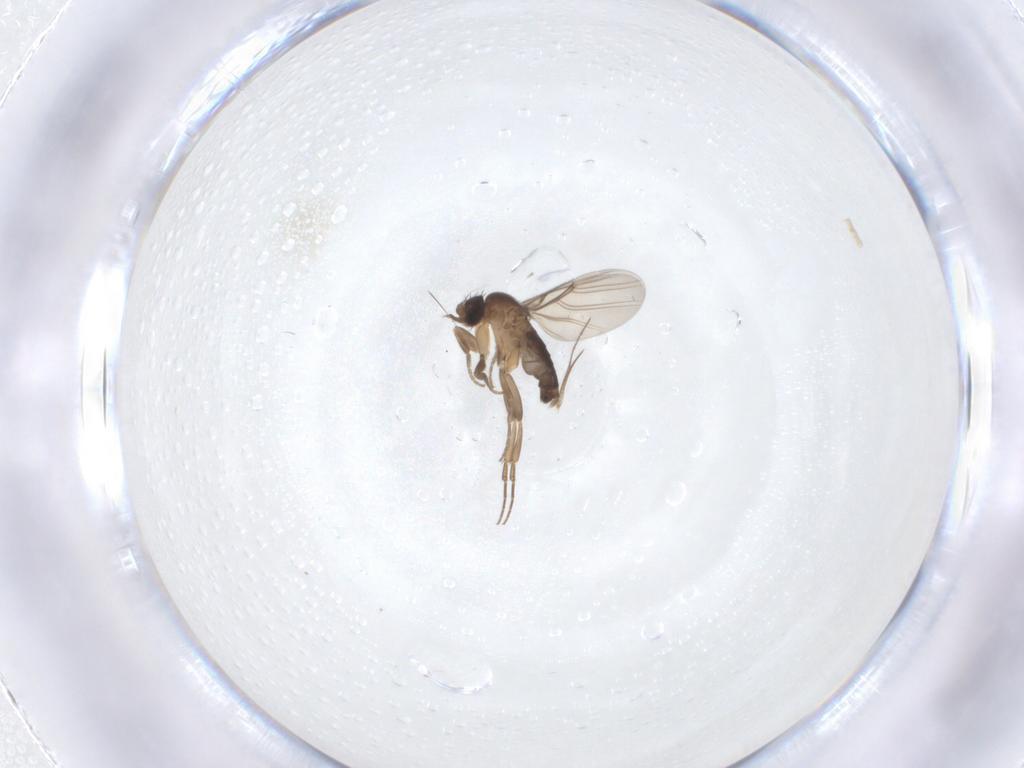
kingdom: Animalia
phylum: Arthropoda
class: Insecta
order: Diptera
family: Phoridae
